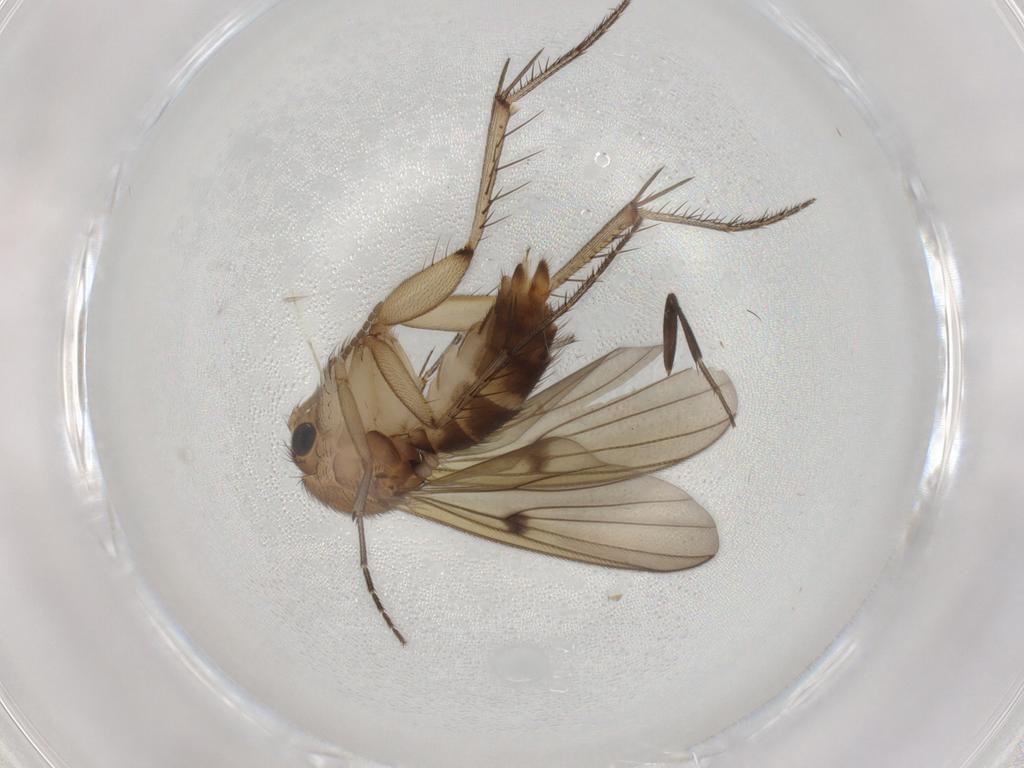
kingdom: Animalia
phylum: Arthropoda
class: Insecta
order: Diptera
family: Mycetophilidae
